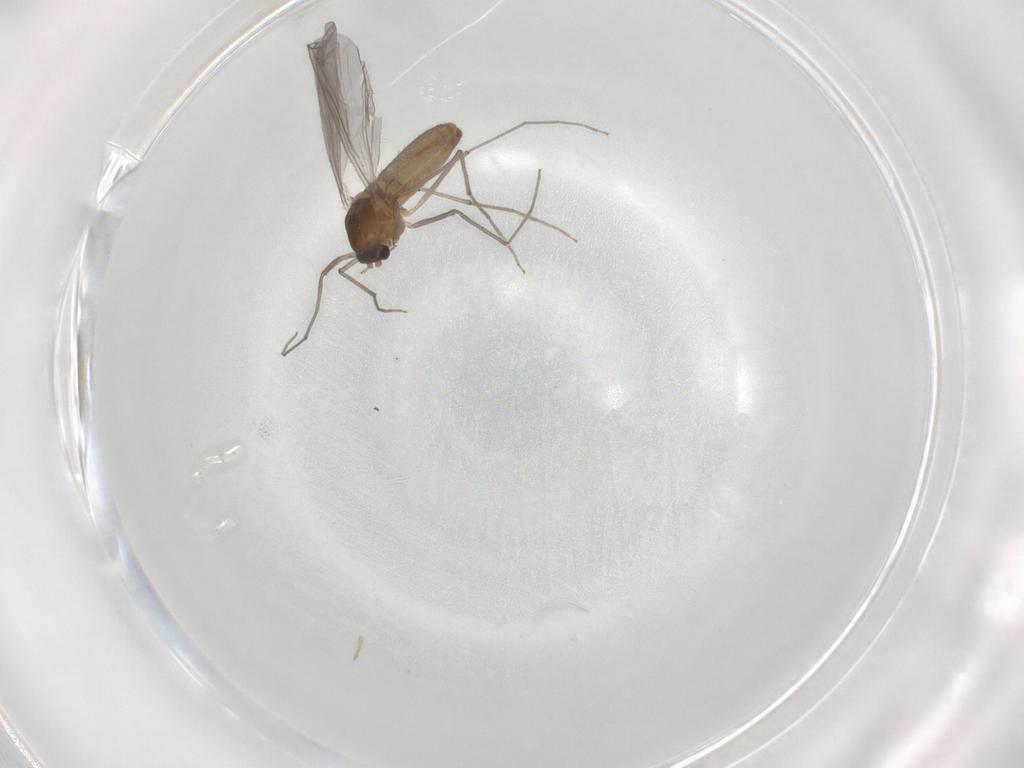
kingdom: Animalia
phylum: Arthropoda
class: Insecta
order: Diptera
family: Chironomidae
